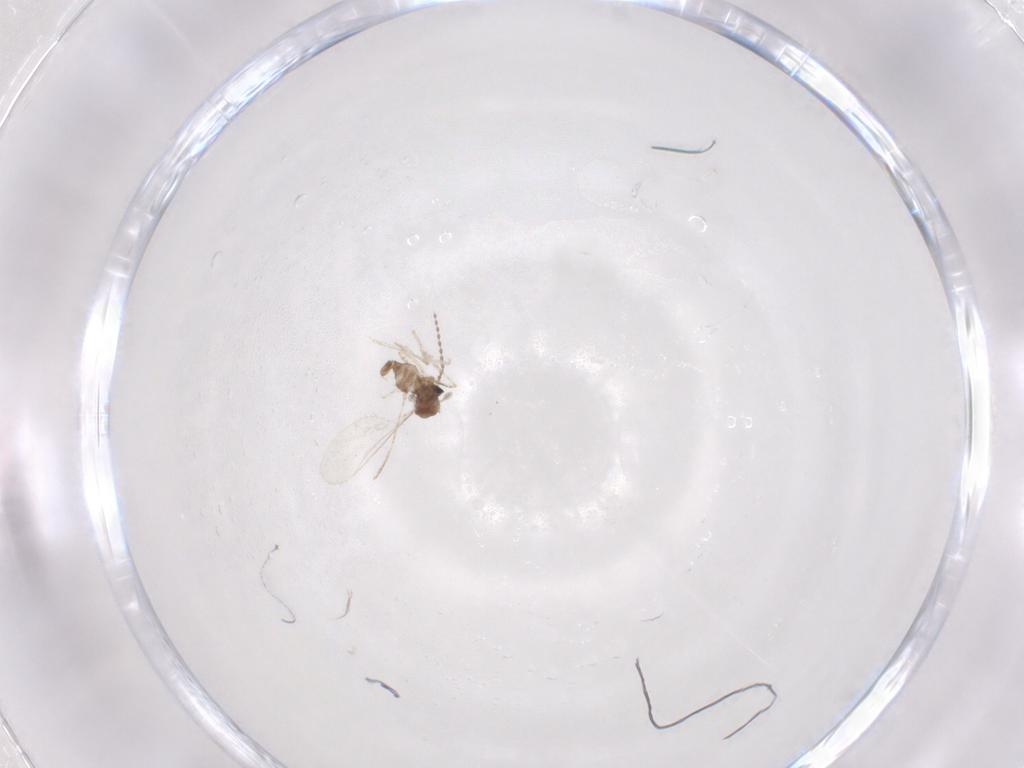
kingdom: Animalia
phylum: Arthropoda
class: Insecta
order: Diptera
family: Cecidomyiidae
